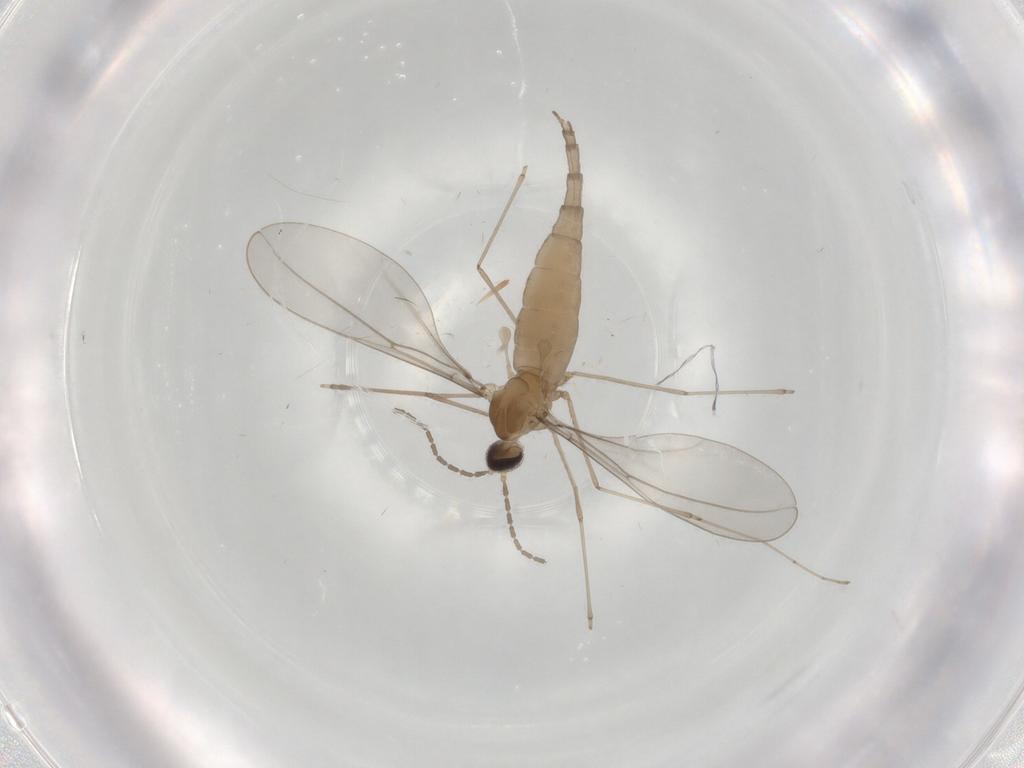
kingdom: Animalia
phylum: Arthropoda
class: Insecta
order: Diptera
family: Cecidomyiidae
